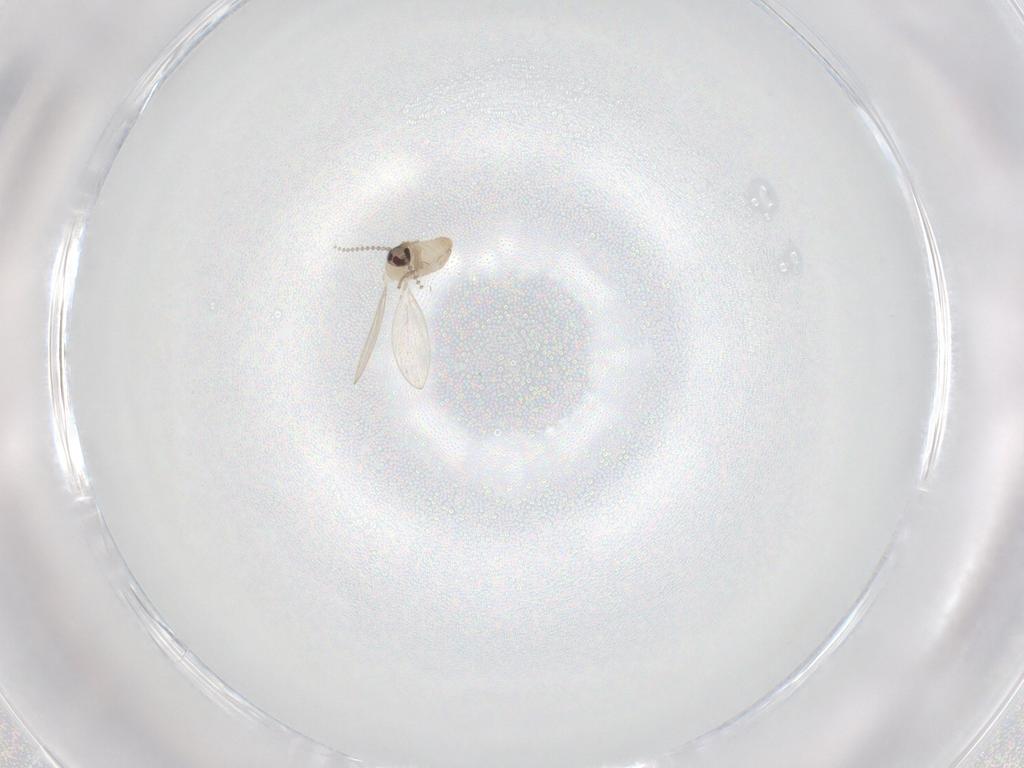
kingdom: Animalia
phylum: Arthropoda
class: Insecta
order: Diptera
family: Psychodidae
